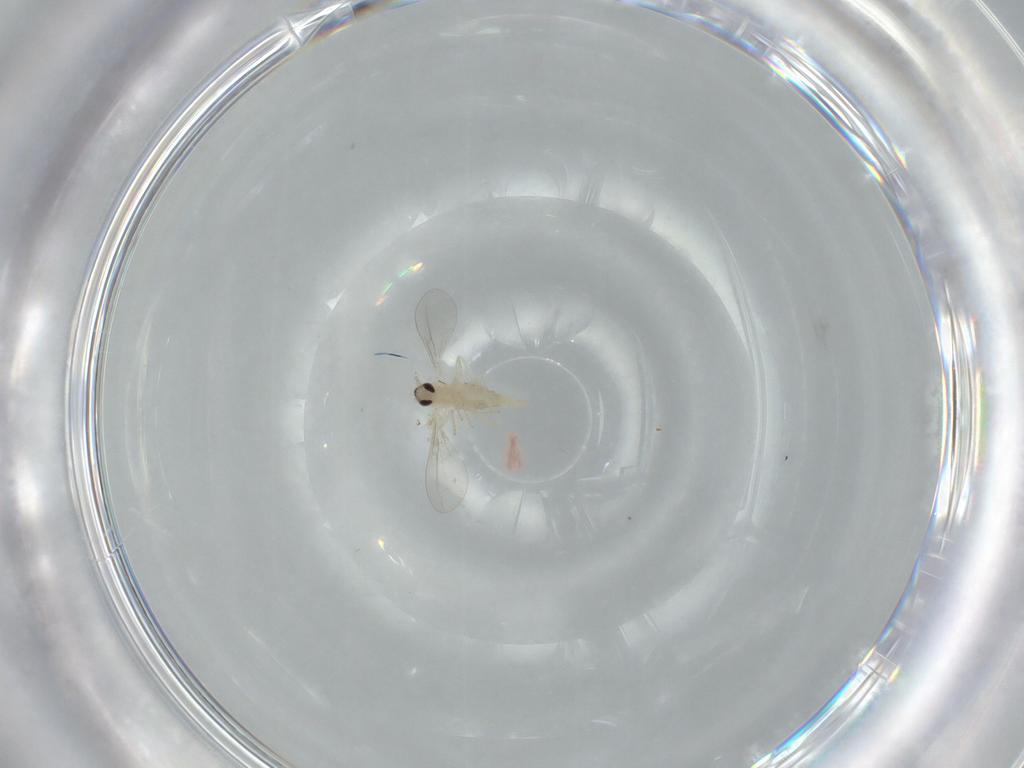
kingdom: Animalia
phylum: Arthropoda
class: Insecta
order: Diptera
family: Cecidomyiidae
